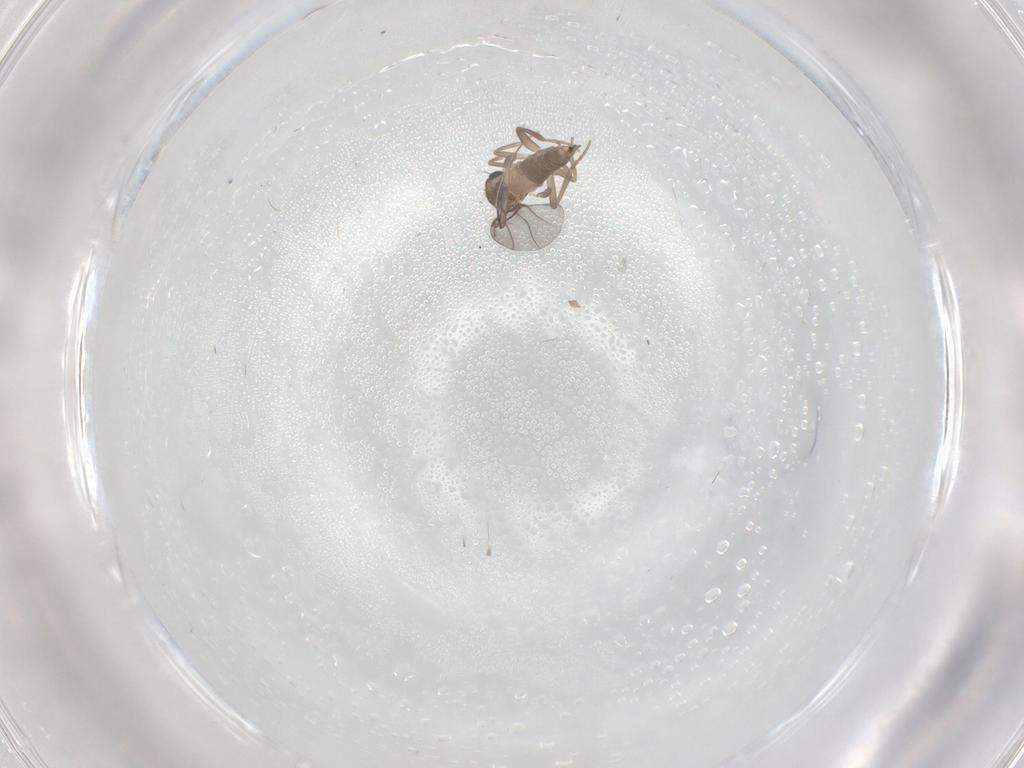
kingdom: Animalia
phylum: Arthropoda
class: Insecta
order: Diptera
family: Ceratopogonidae
